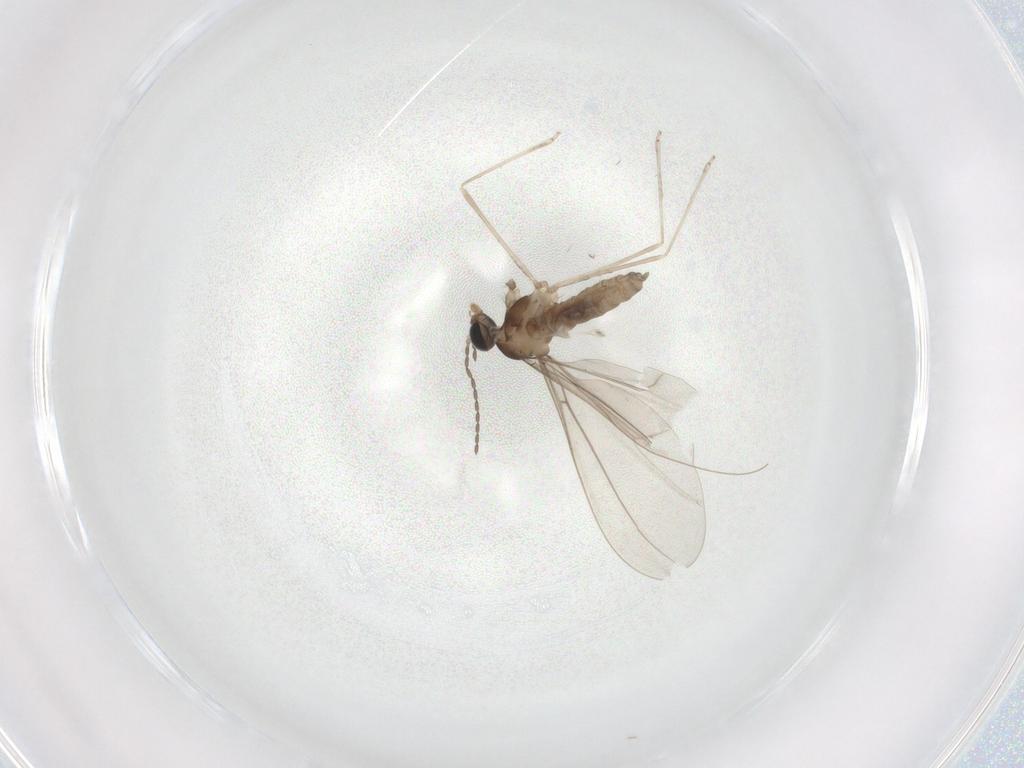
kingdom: Animalia
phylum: Arthropoda
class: Insecta
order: Diptera
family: Cecidomyiidae
